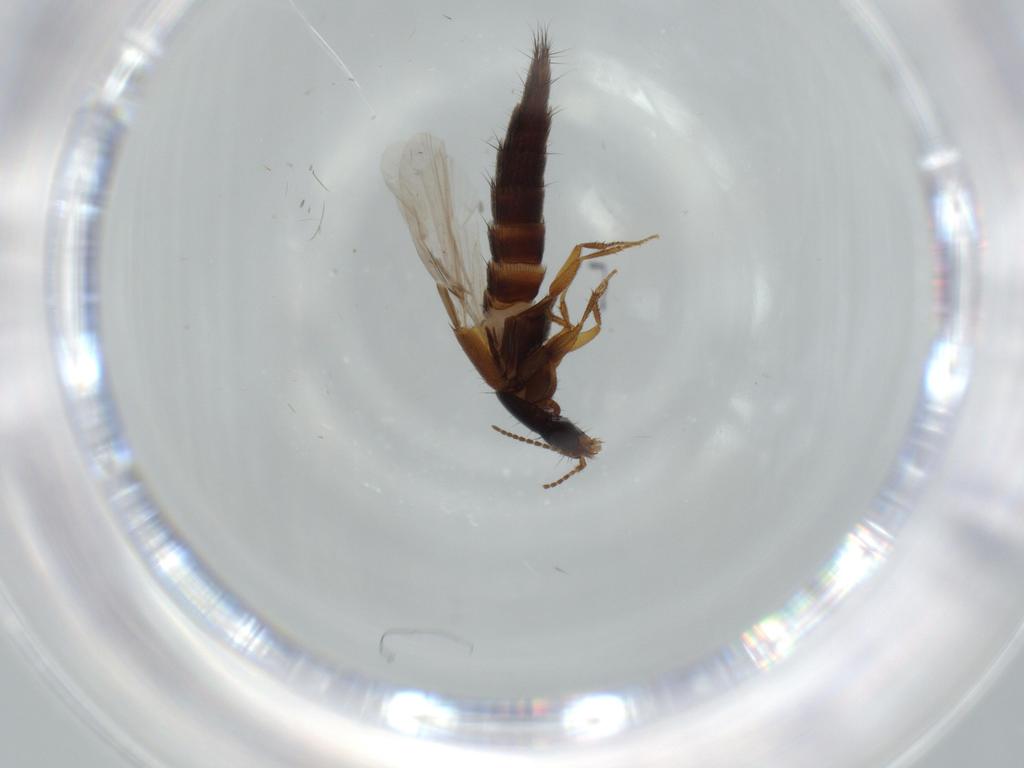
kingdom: Animalia
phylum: Arthropoda
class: Insecta
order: Coleoptera
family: Staphylinidae
